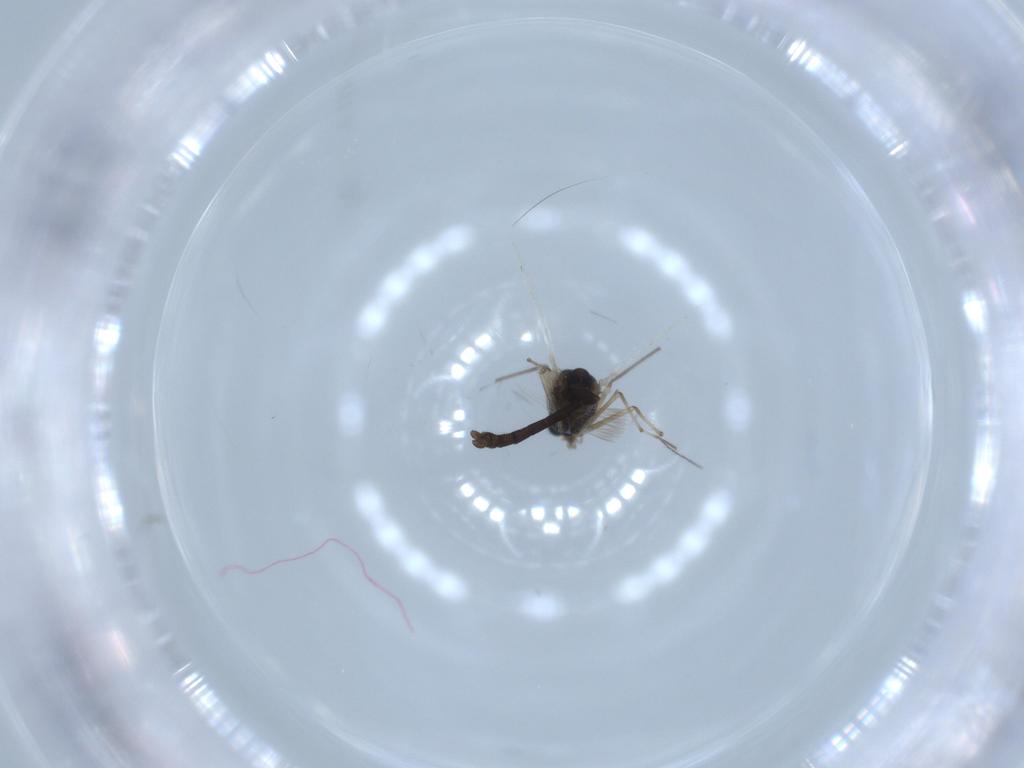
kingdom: Animalia
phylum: Arthropoda
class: Insecta
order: Diptera
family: Chironomidae
